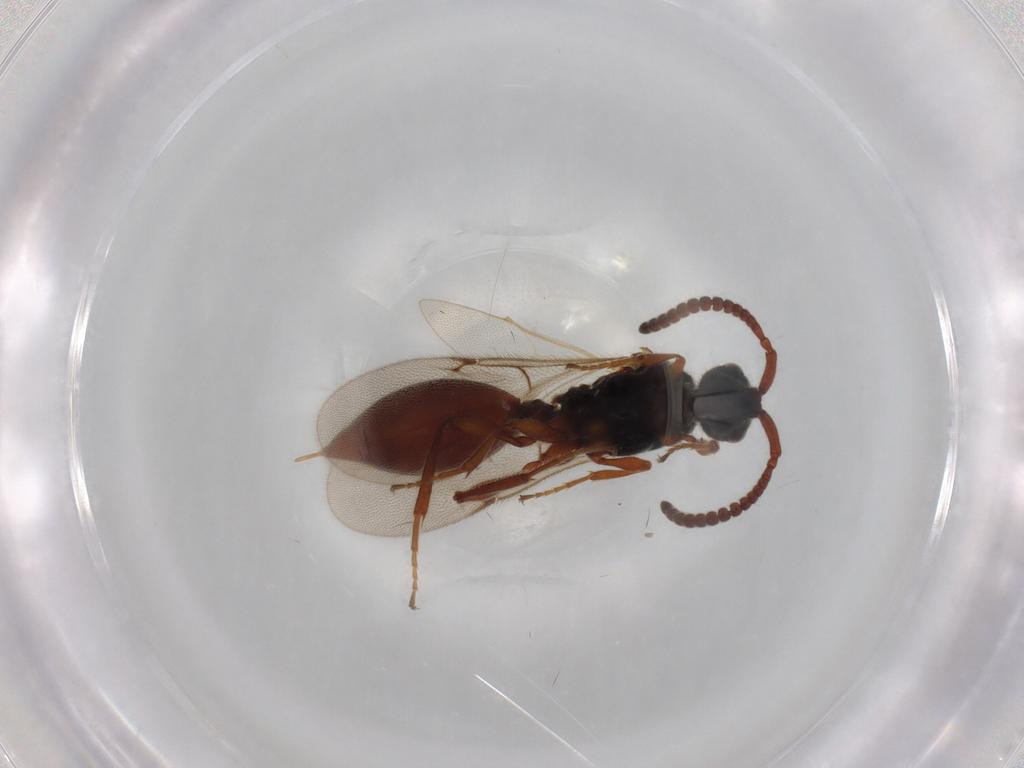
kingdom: Animalia
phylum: Arthropoda
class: Insecta
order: Hymenoptera
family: Vespidae
